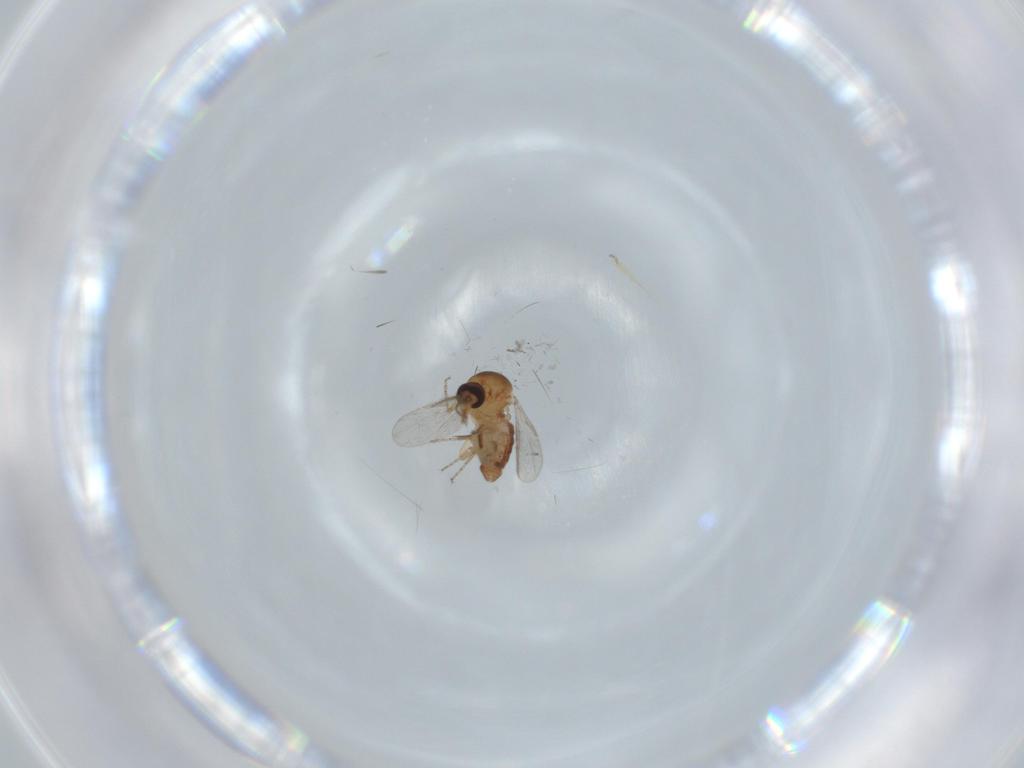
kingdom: Animalia
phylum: Arthropoda
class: Insecta
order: Diptera
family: Ceratopogonidae
